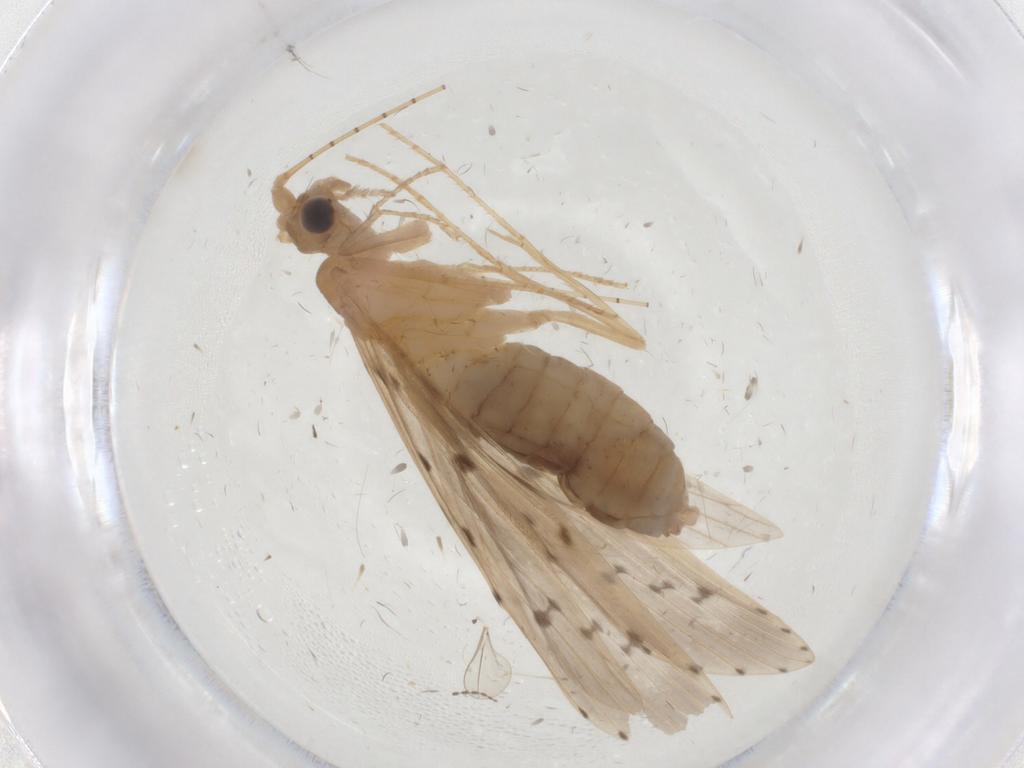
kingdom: Animalia
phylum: Arthropoda
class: Insecta
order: Trichoptera
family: Leptoceridae
